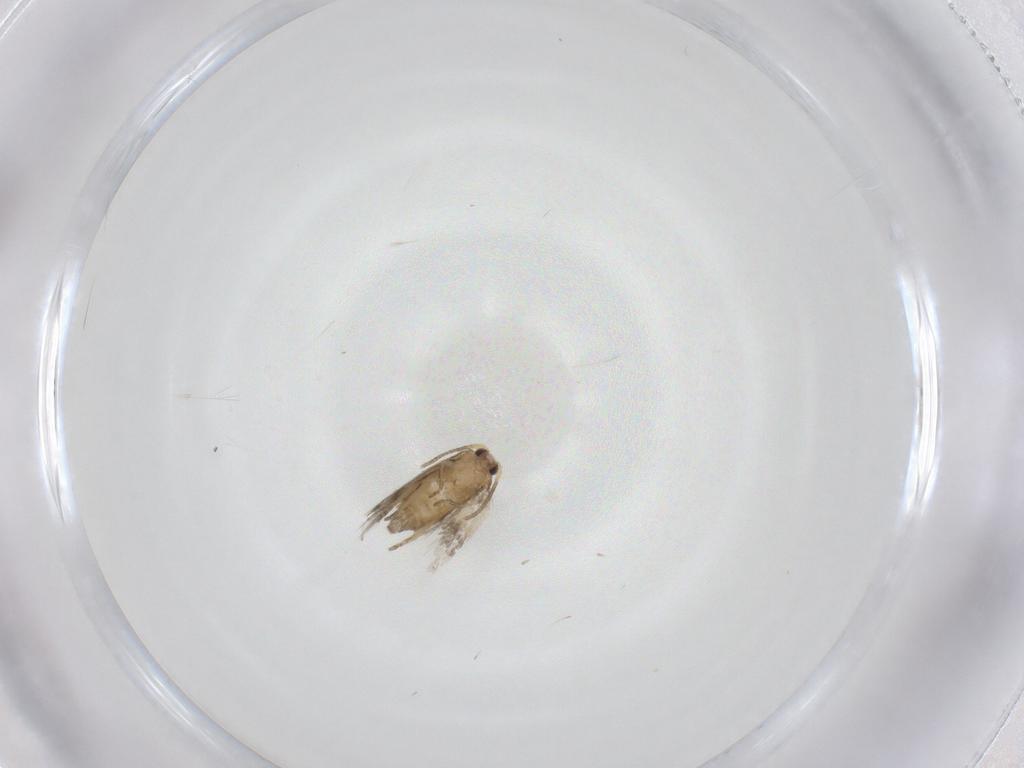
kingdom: Animalia
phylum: Arthropoda
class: Insecta
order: Lepidoptera
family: Nepticulidae
